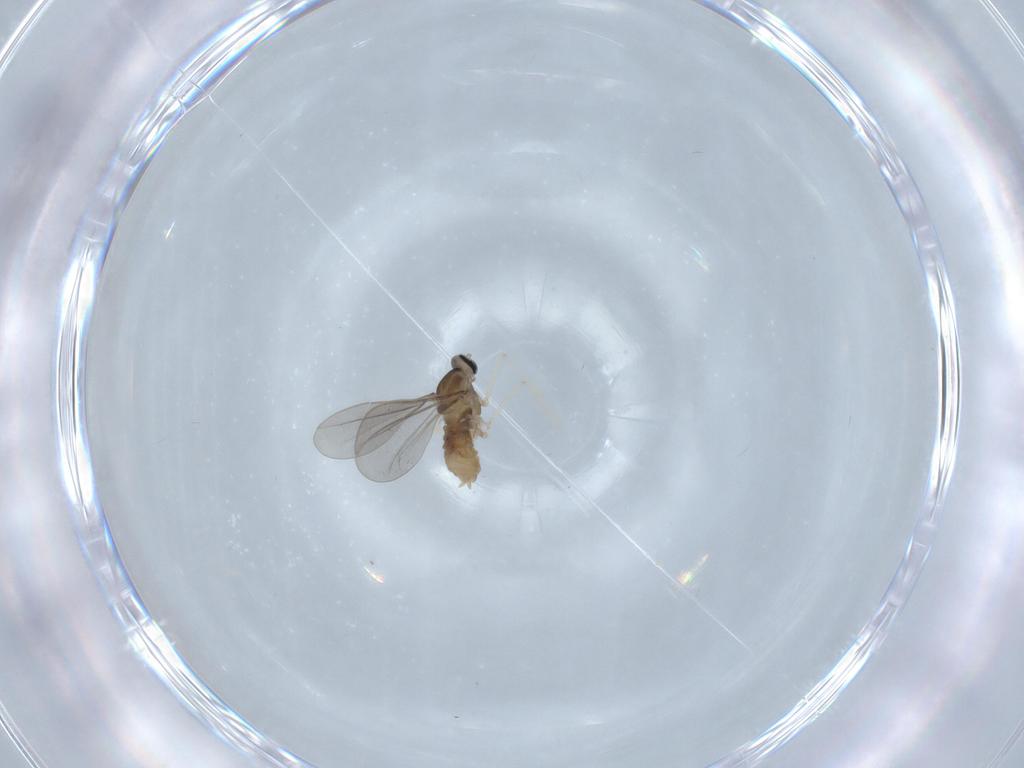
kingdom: Animalia
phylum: Arthropoda
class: Insecta
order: Diptera
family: Cecidomyiidae
